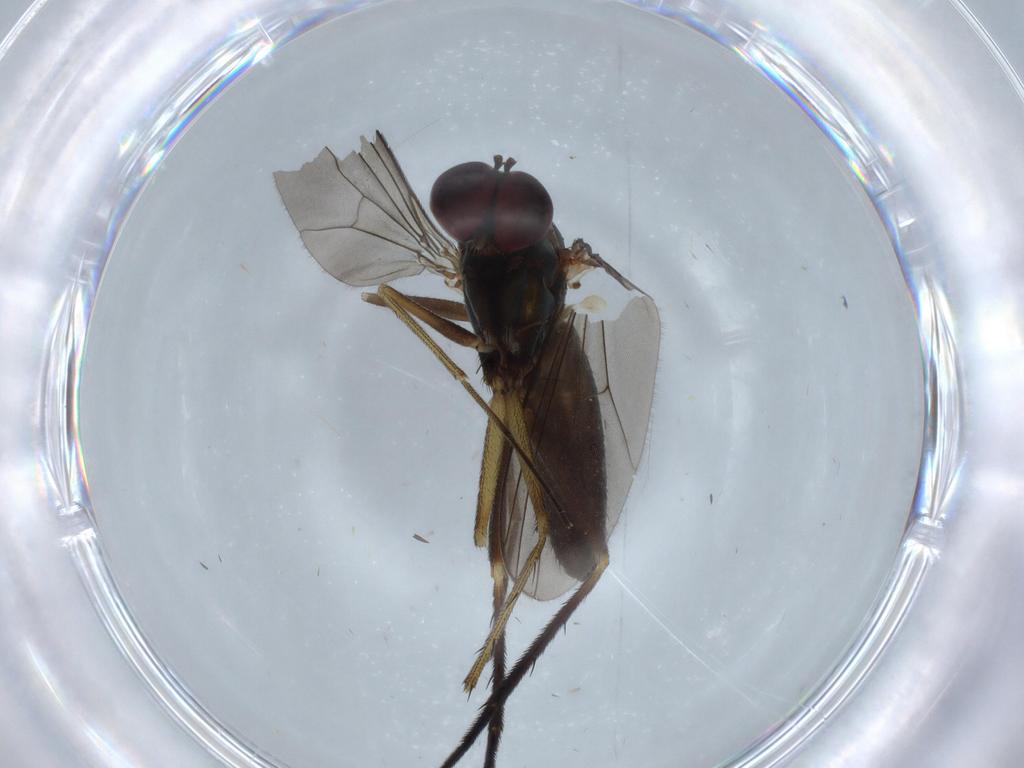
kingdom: Animalia
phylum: Arthropoda
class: Insecta
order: Diptera
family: Dolichopodidae
